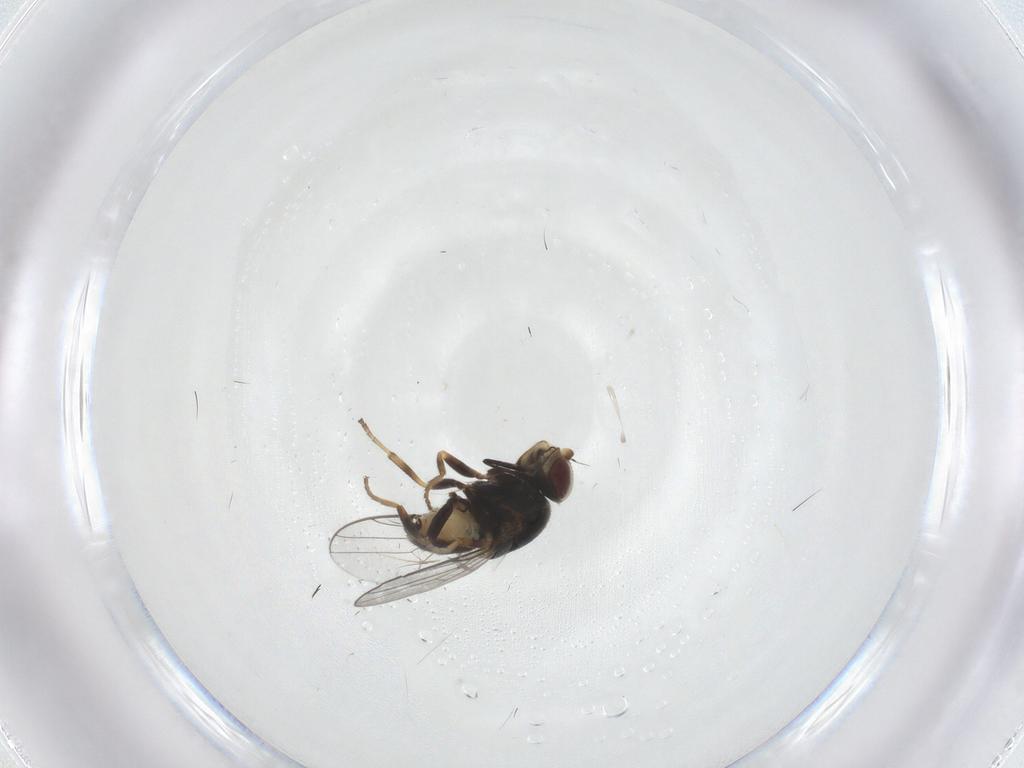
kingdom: Animalia
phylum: Arthropoda
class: Insecta
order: Diptera
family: Chloropidae
